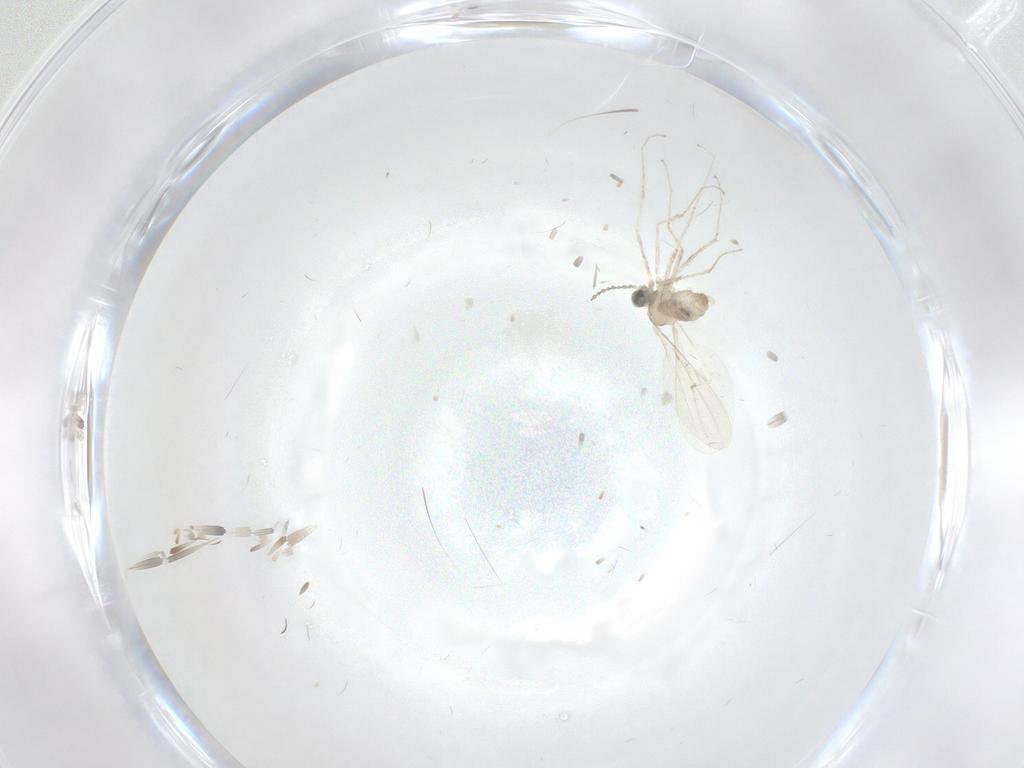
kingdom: Animalia
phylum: Arthropoda
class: Insecta
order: Diptera
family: Cecidomyiidae
